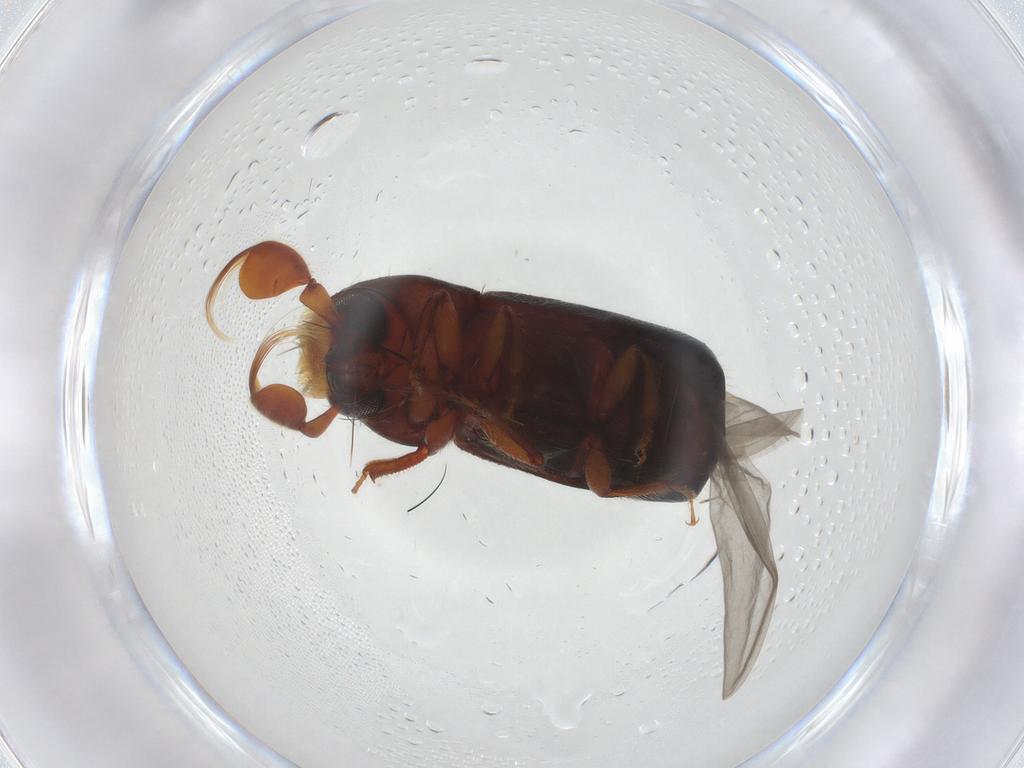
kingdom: Animalia
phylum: Arthropoda
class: Insecta
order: Coleoptera
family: Curculionidae
